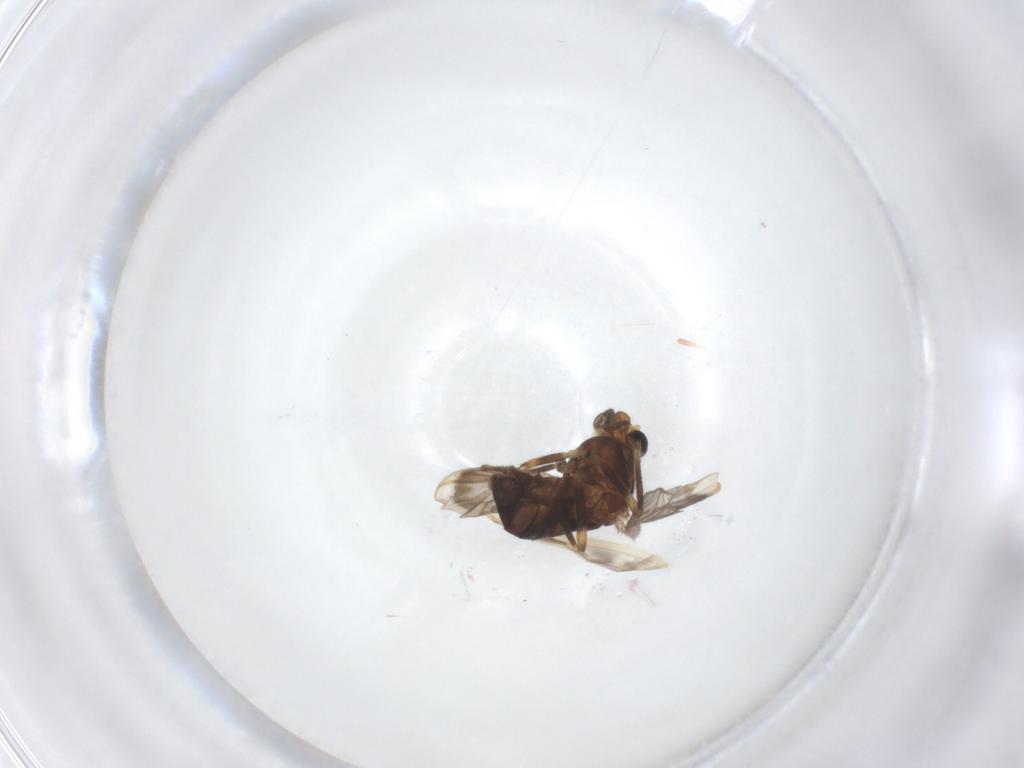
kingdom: Animalia
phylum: Arthropoda
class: Insecta
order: Diptera
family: Chironomidae
